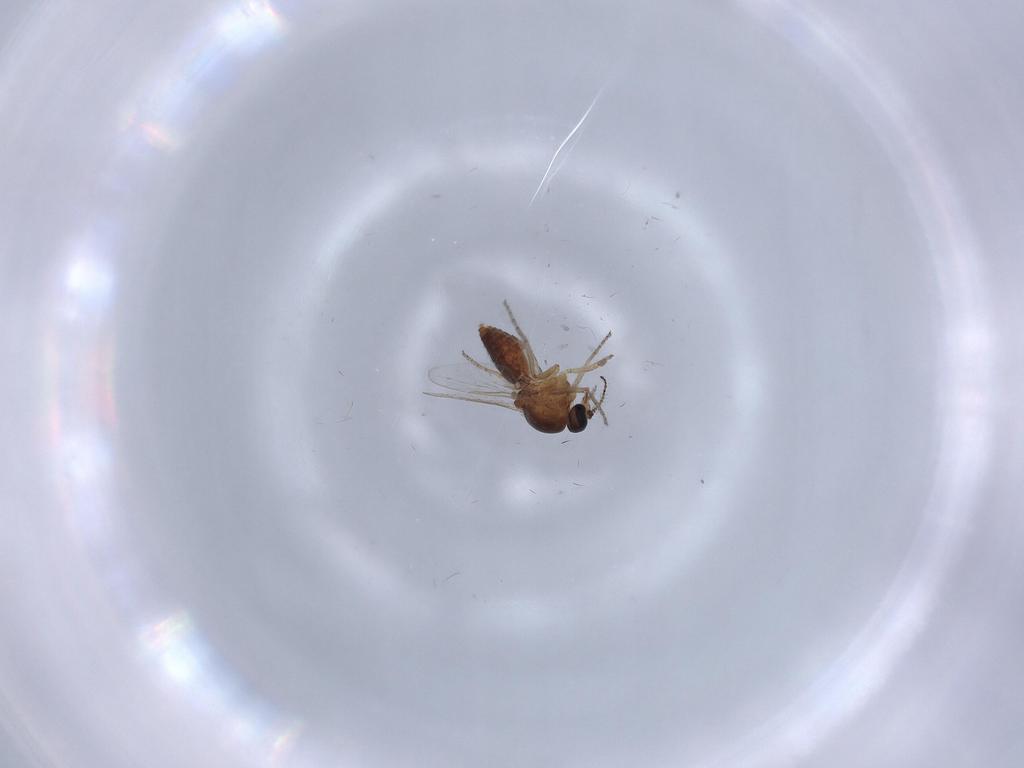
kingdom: Animalia
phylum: Arthropoda
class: Insecta
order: Diptera
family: Ceratopogonidae
